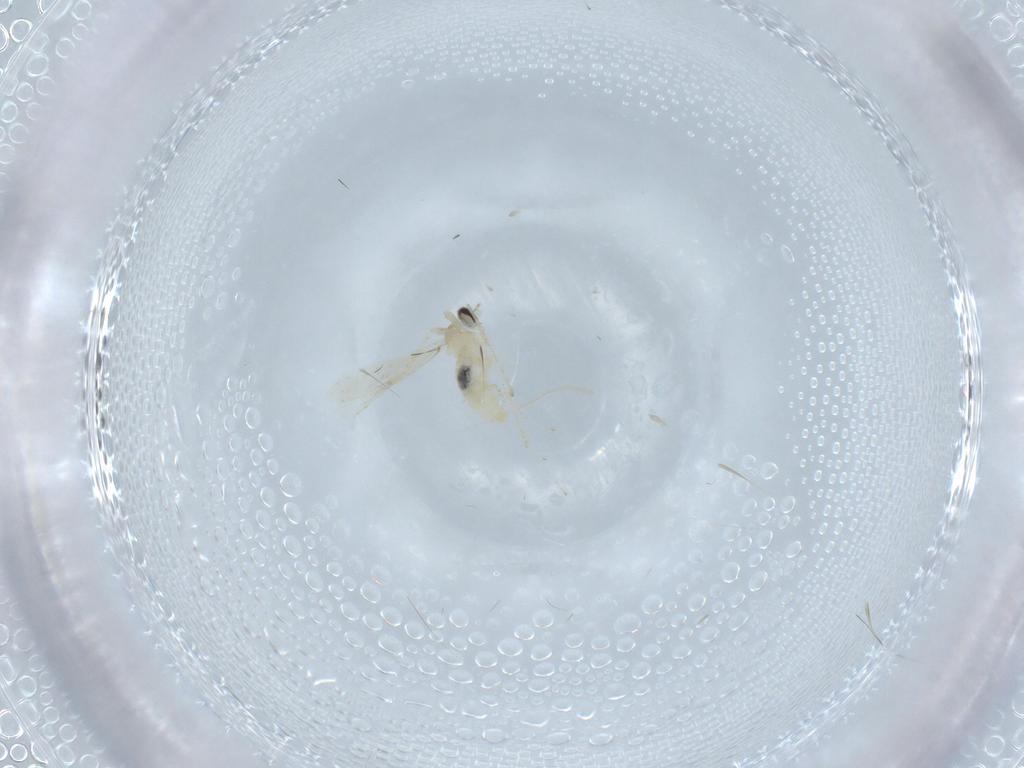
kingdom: Animalia
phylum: Arthropoda
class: Insecta
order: Diptera
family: Cecidomyiidae
